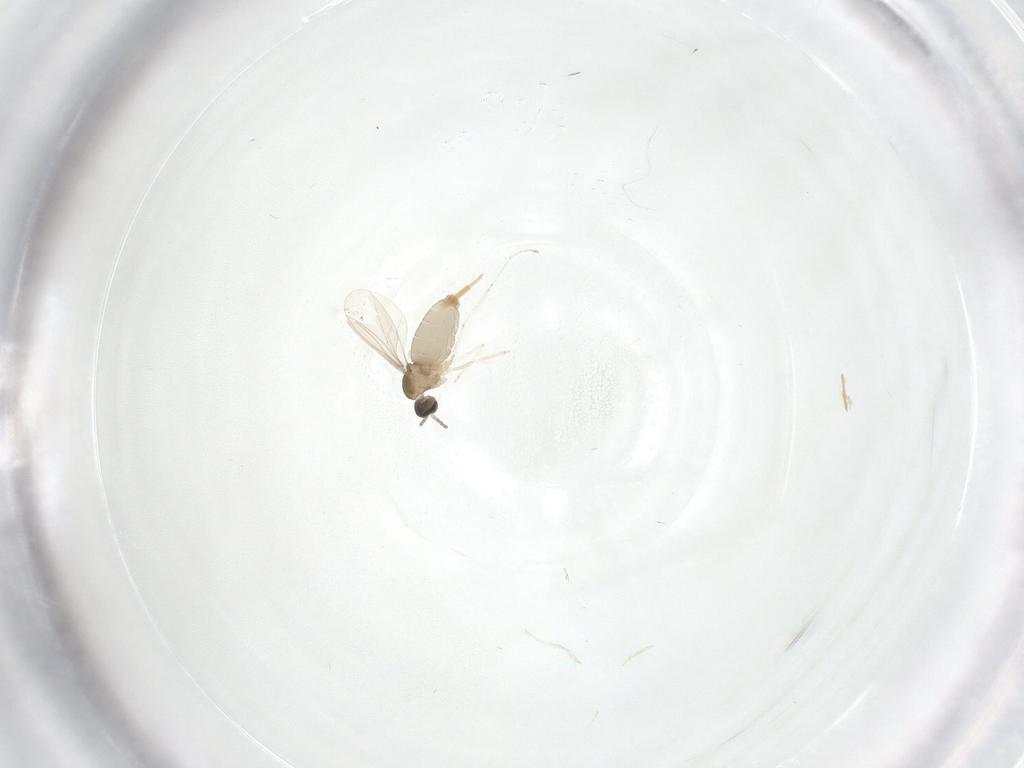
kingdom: Animalia
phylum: Arthropoda
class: Insecta
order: Diptera
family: Cecidomyiidae
